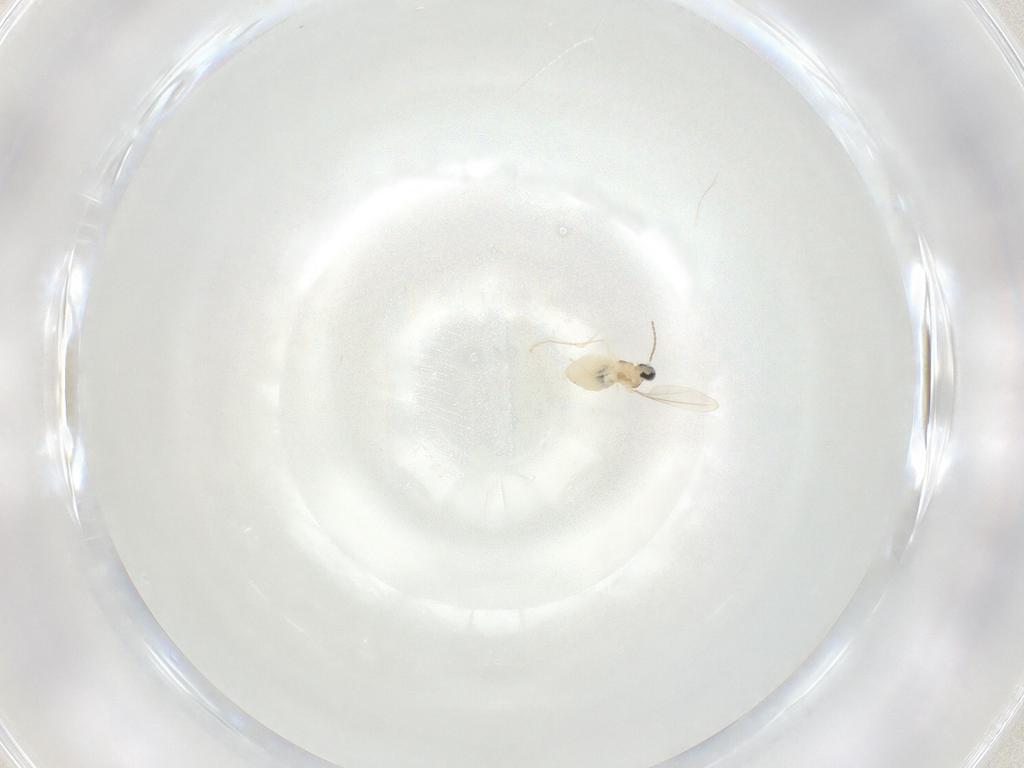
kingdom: Animalia
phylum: Arthropoda
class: Insecta
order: Diptera
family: Cecidomyiidae
